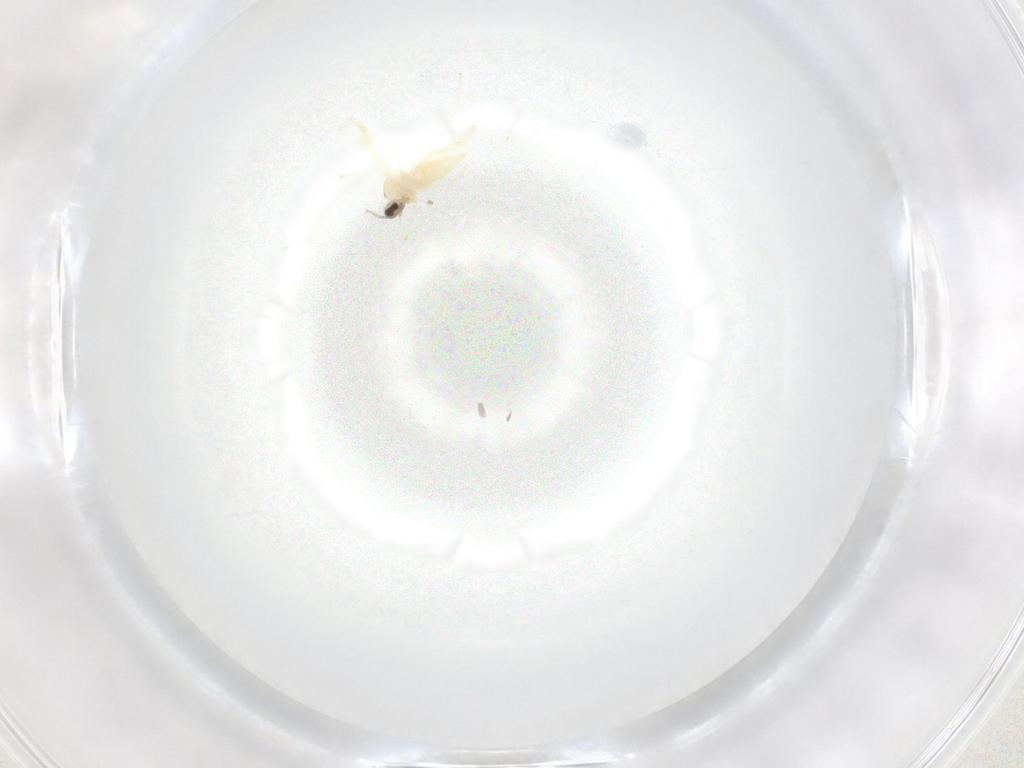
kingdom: Animalia
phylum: Arthropoda
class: Insecta
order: Diptera
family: Cecidomyiidae
